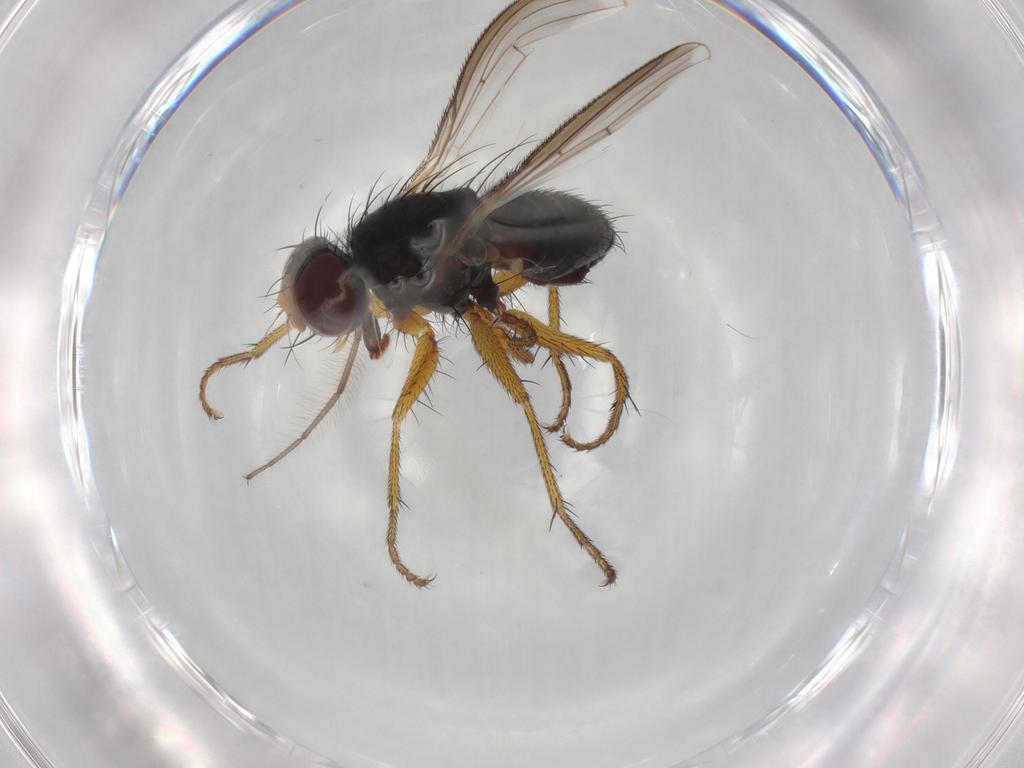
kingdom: Animalia
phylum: Arthropoda
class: Insecta
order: Diptera
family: Muscidae
